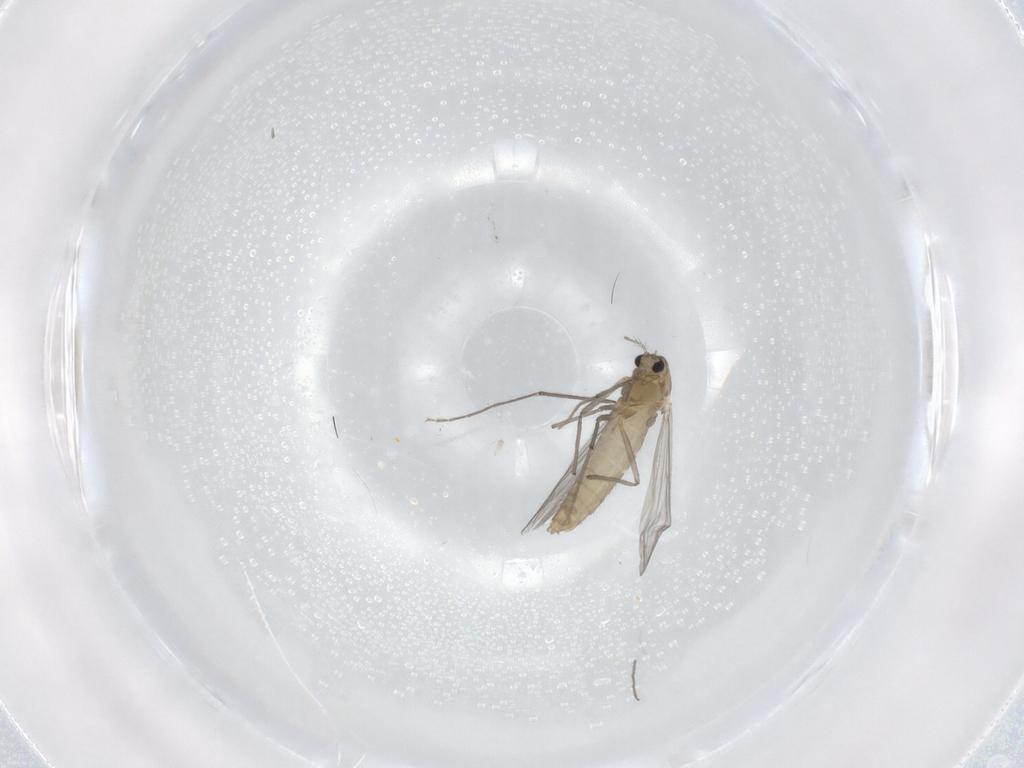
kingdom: Animalia
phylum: Arthropoda
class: Insecta
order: Diptera
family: Chironomidae
